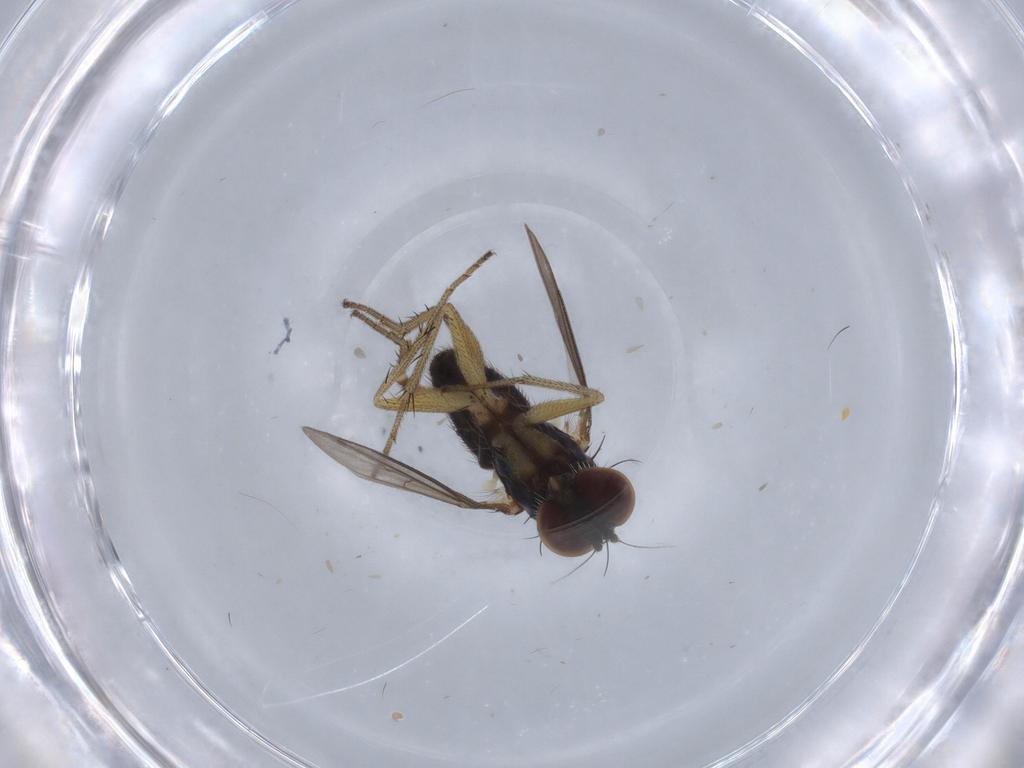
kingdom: Animalia
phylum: Arthropoda
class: Insecta
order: Diptera
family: Dolichopodidae
